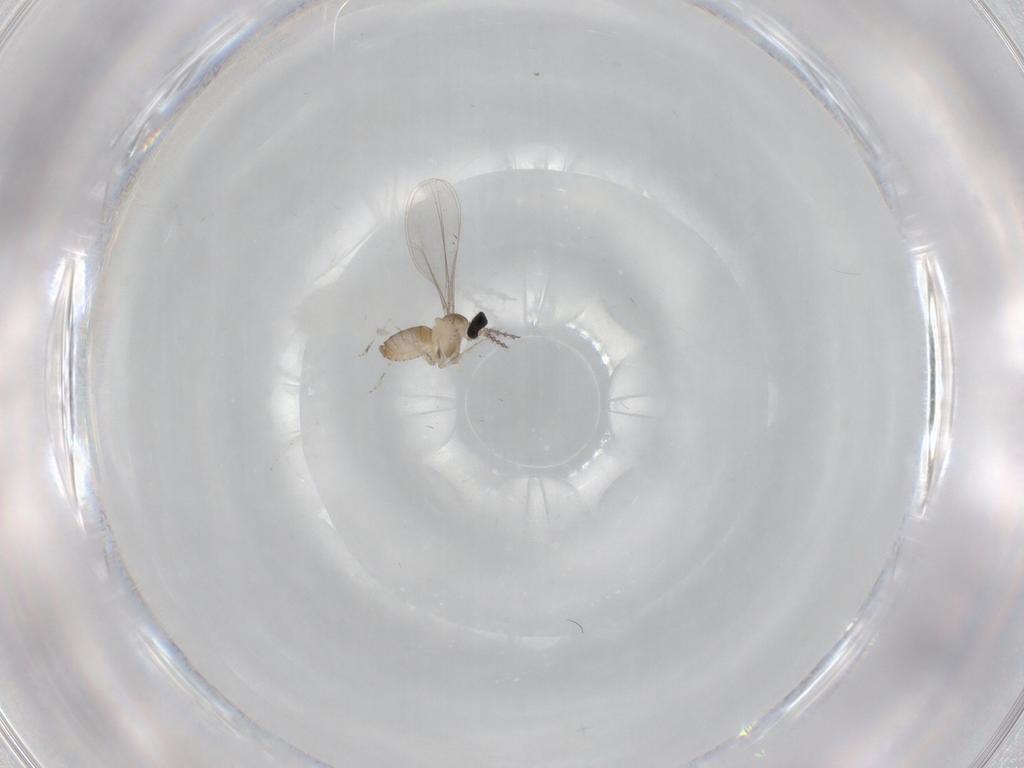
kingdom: Animalia
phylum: Arthropoda
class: Insecta
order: Diptera
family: Cecidomyiidae
